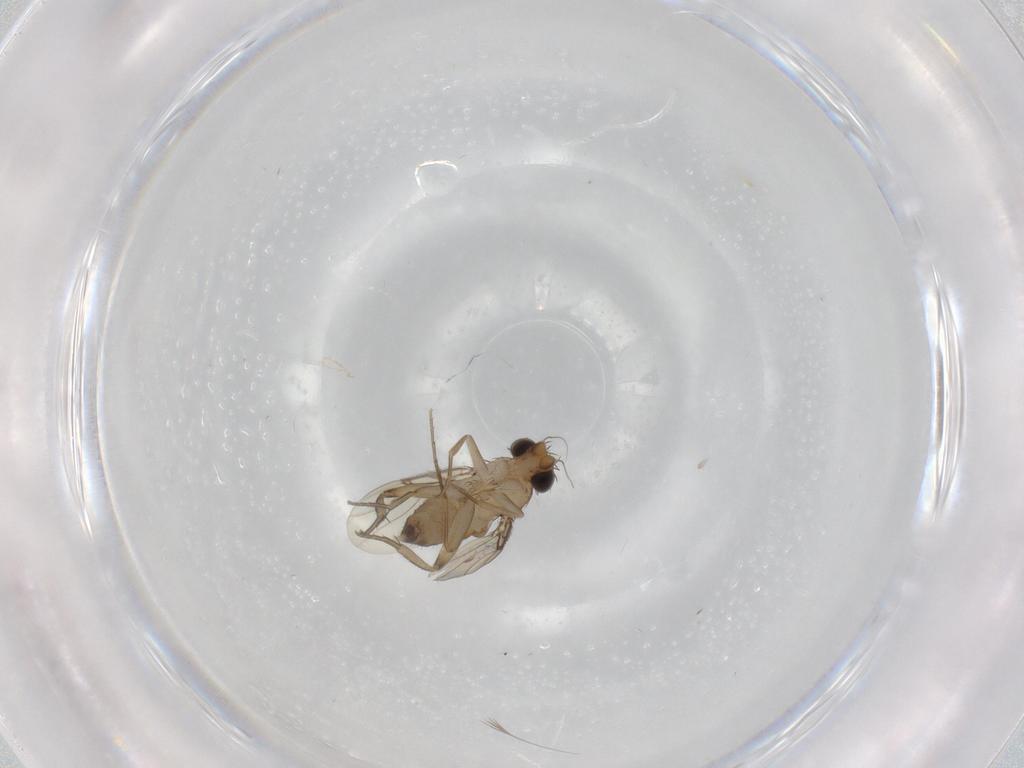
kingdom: Animalia
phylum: Arthropoda
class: Insecta
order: Diptera
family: Phoridae
